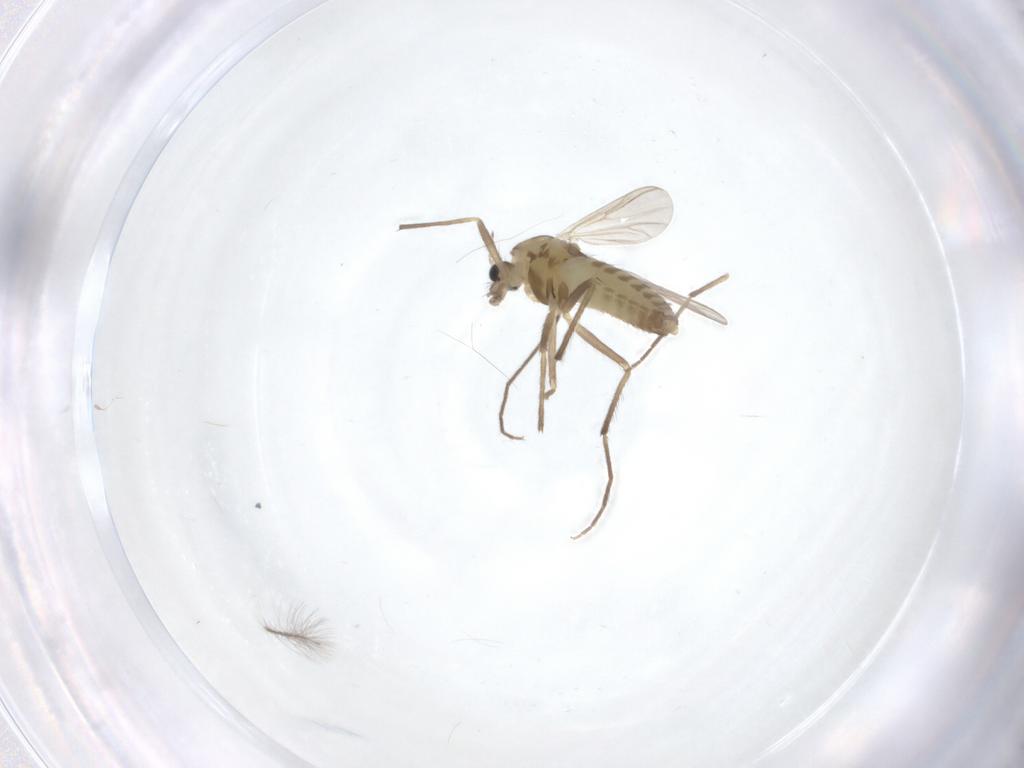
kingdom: Animalia
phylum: Arthropoda
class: Insecta
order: Diptera
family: Chironomidae
